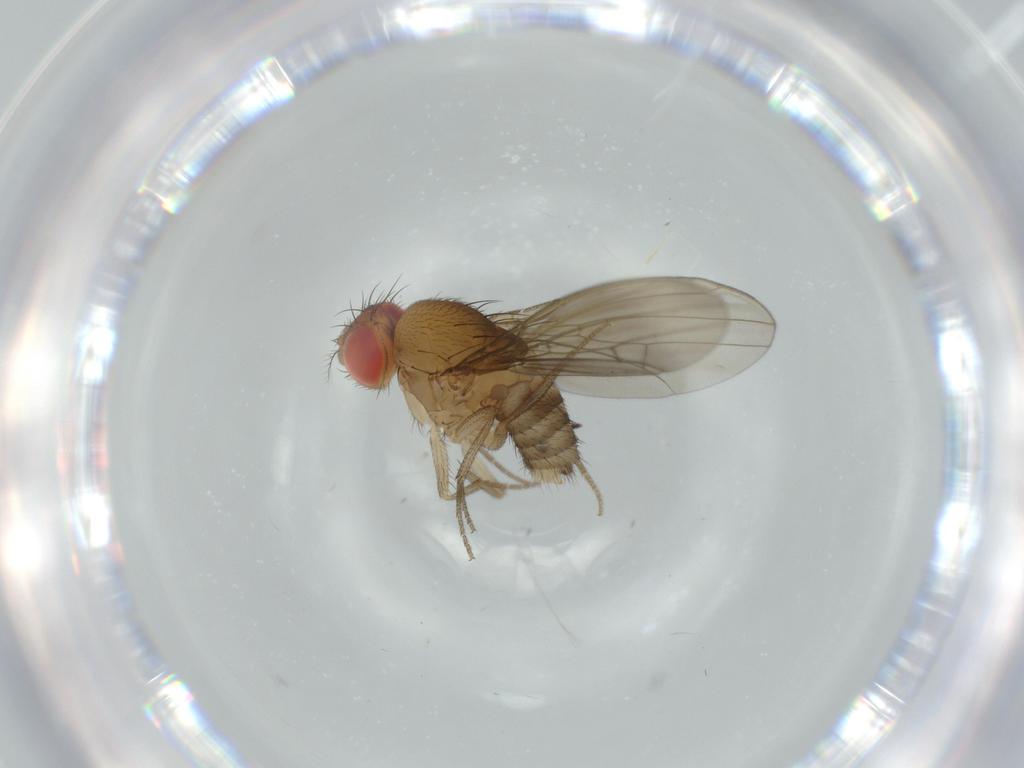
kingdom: Animalia
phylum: Arthropoda
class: Insecta
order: Diptera
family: Drosophilidae
